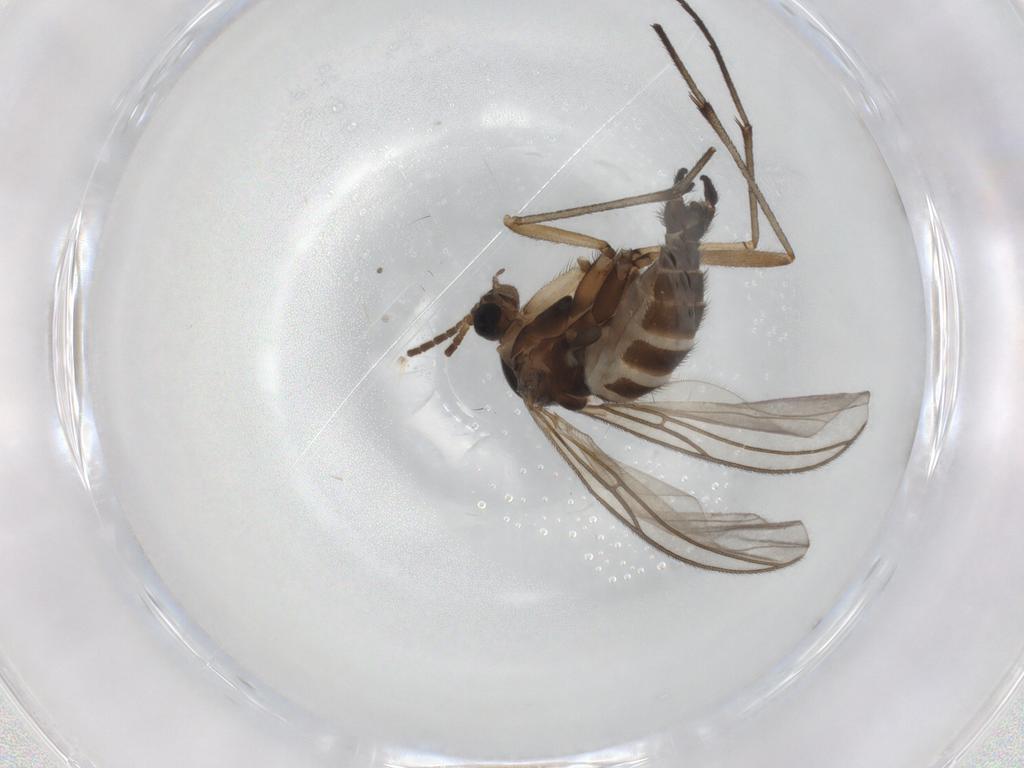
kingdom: Animalia
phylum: Arthropoda
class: Insecta
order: Diptera
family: Sciaridae
